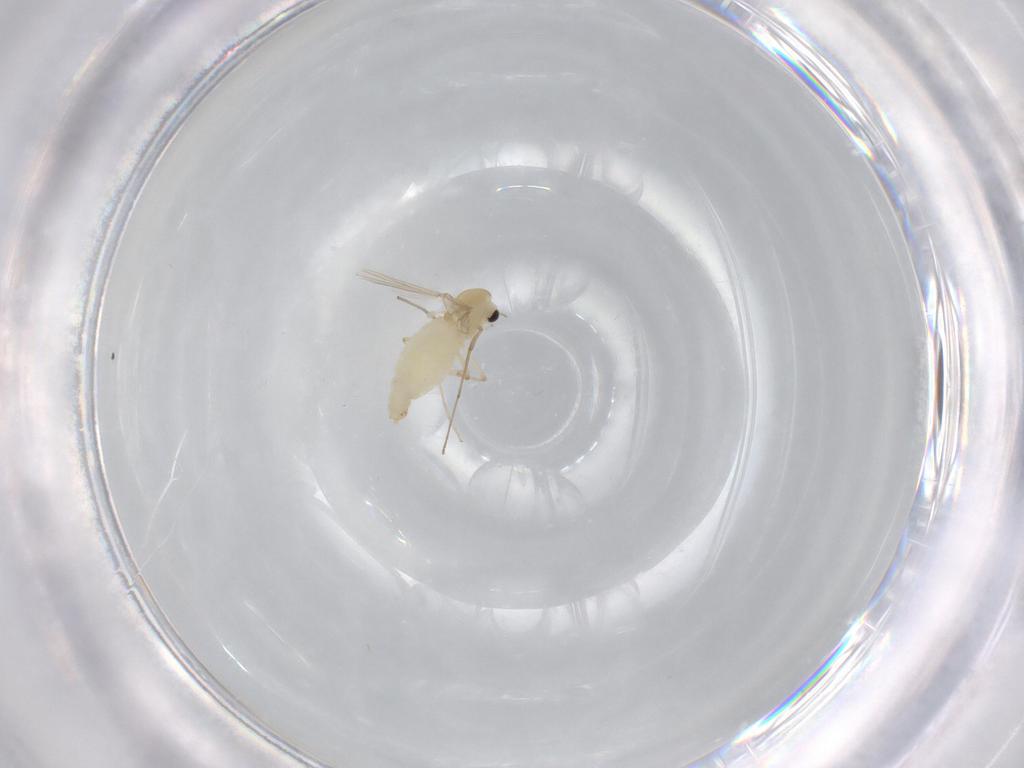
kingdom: Animalia
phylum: Arthropoda
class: Insecta
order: Diptera
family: Chironomidae
